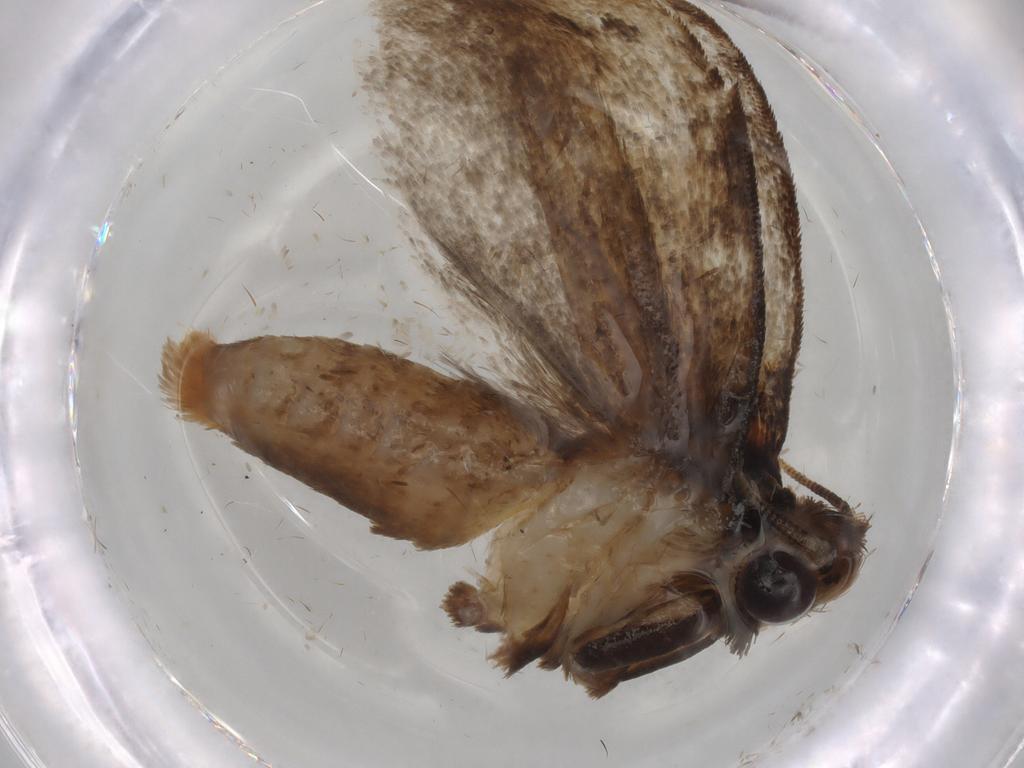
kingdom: Animalia
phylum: Arthropoda
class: Insecta
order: Lepidoptera
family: Tineidae
